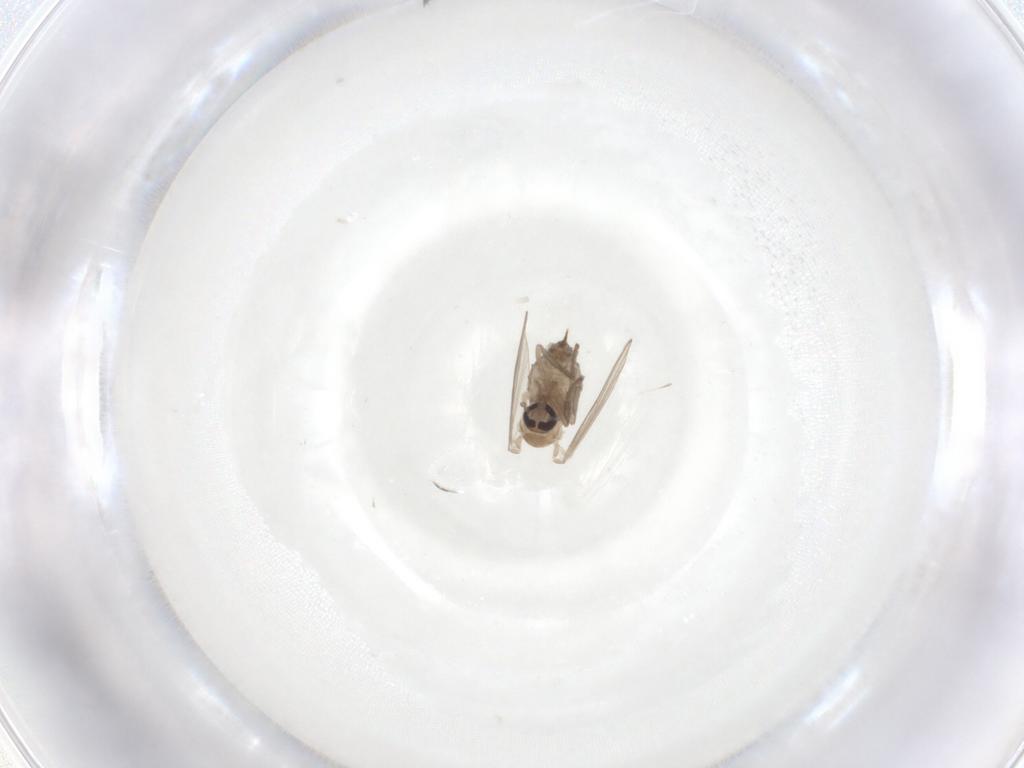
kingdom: Animalia
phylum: Arthropoda
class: Insecta
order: Diptera
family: Psychodidae
